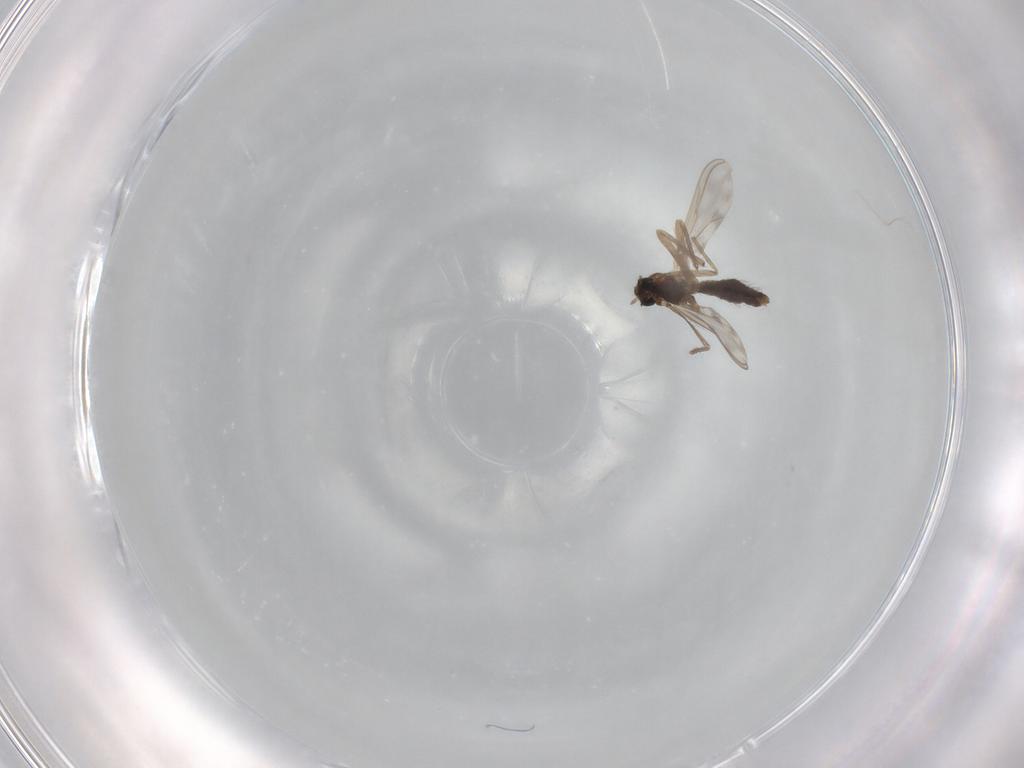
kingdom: Animalia
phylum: Arthropoda
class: Insecta
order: Diptera
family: Chironomidae
